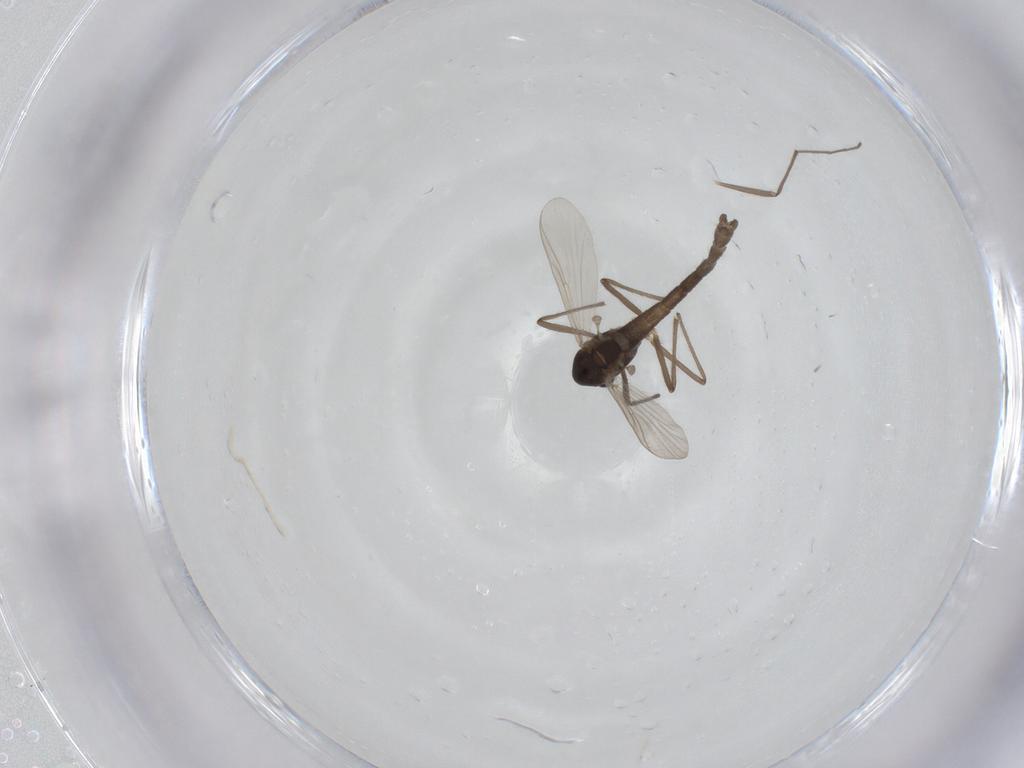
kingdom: Animalia
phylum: Arthropoda
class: Insecta
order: Diptera
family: Chironomidae
